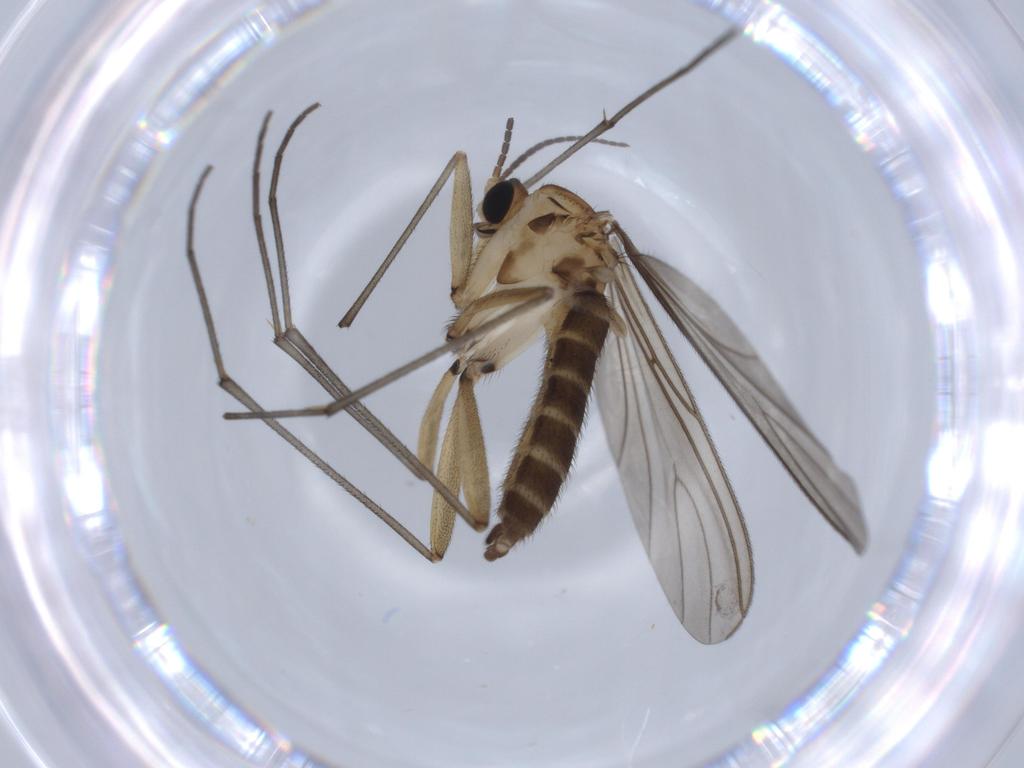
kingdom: Animalia
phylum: Arthropoda
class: Insecta
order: Diptera
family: Sciaridae
